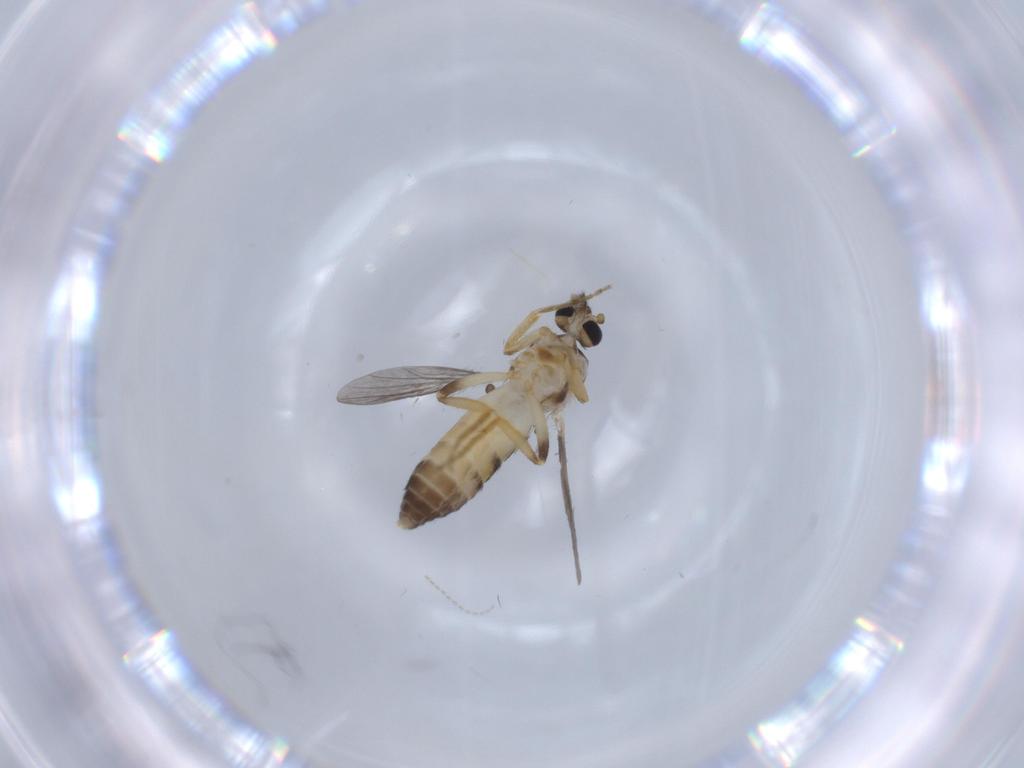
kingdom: Animalia
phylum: Arthropoda
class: Insecta
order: Diptera
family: Ceratopogonidae
